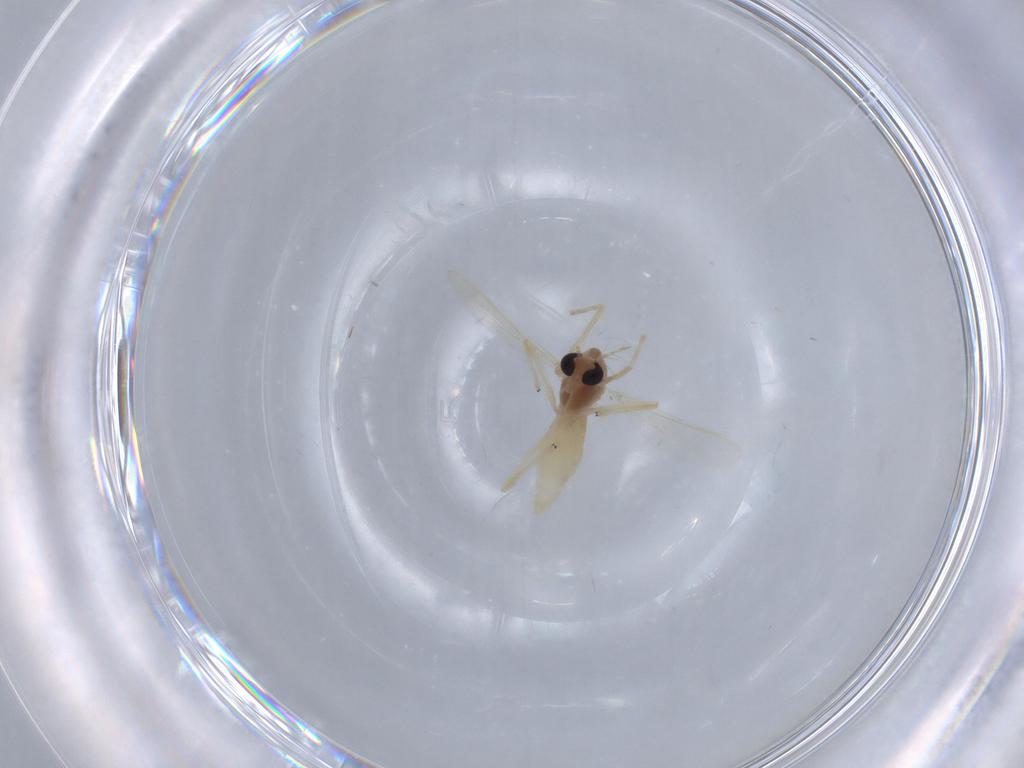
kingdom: Animalia
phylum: Arthropoda
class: Insecta
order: Diptera
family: Chironomidae
